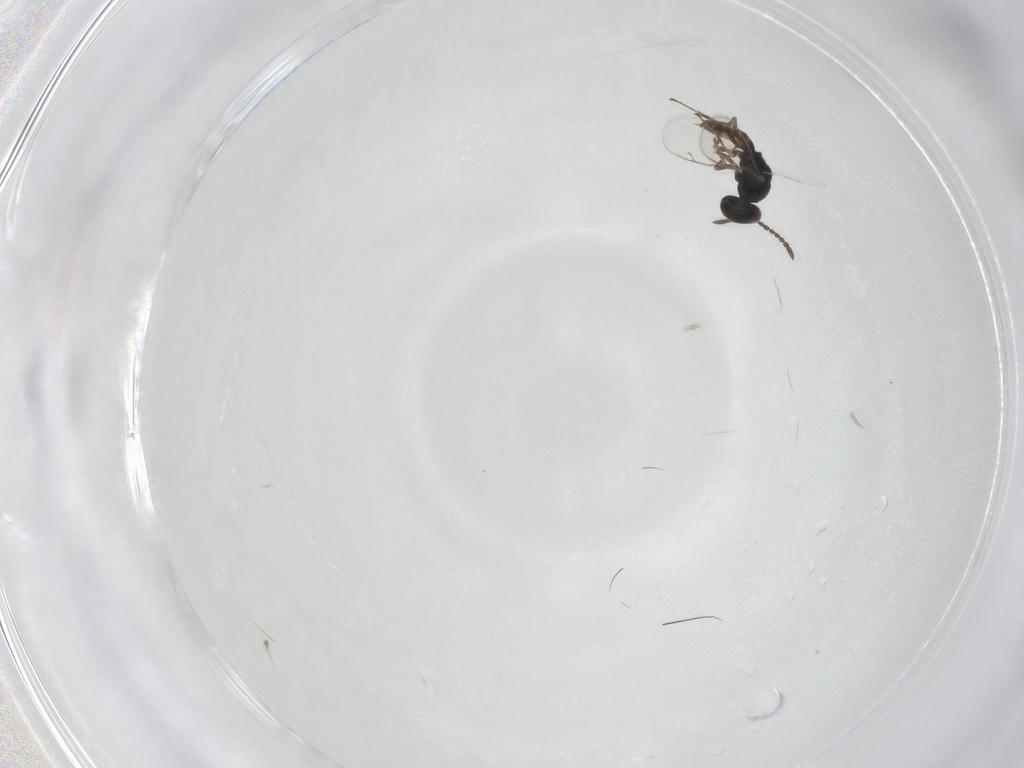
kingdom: Animalia
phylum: Arthropoda
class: Insecta
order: Hymenoptera
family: Pteromalidae
